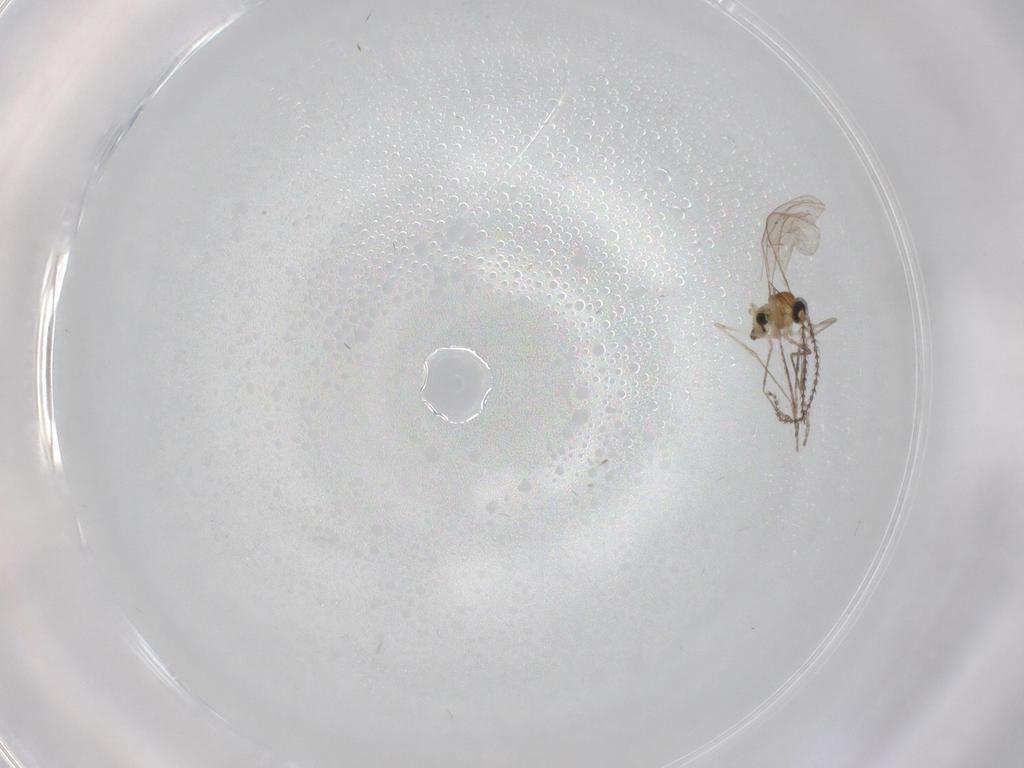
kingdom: Animalia
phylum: Arthropoda
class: Insecta
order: Diptera
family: Cecidomyiidae
